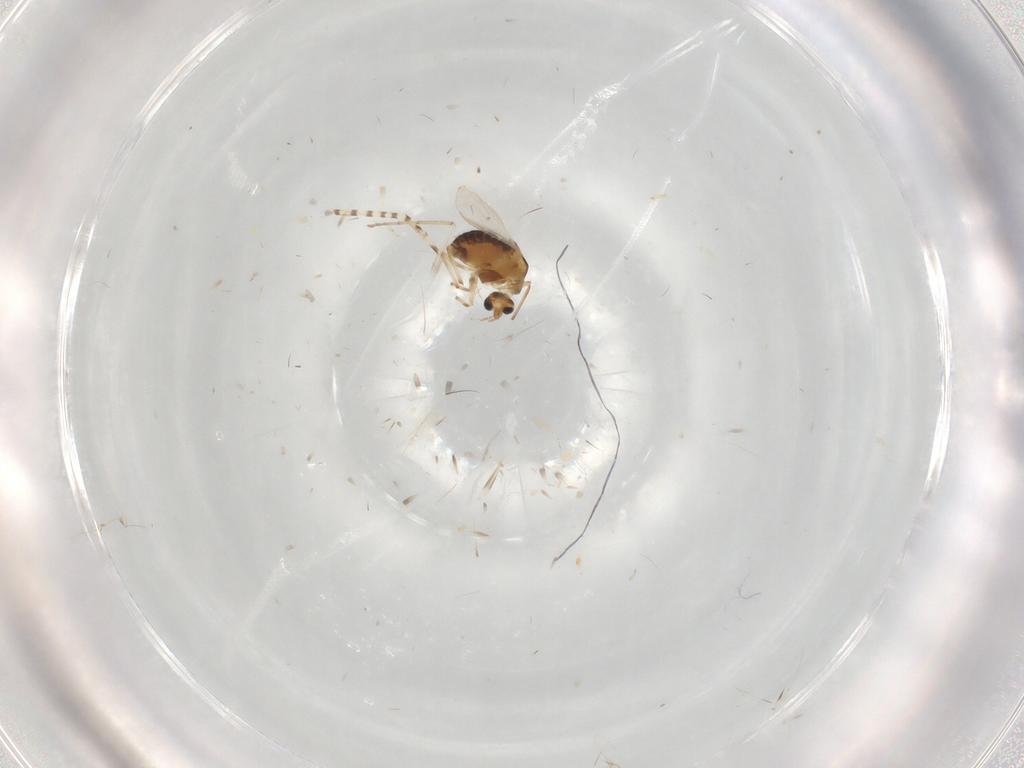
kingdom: Animalia
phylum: Arthropoda
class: Insecta
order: Diptera
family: Chironomidae
